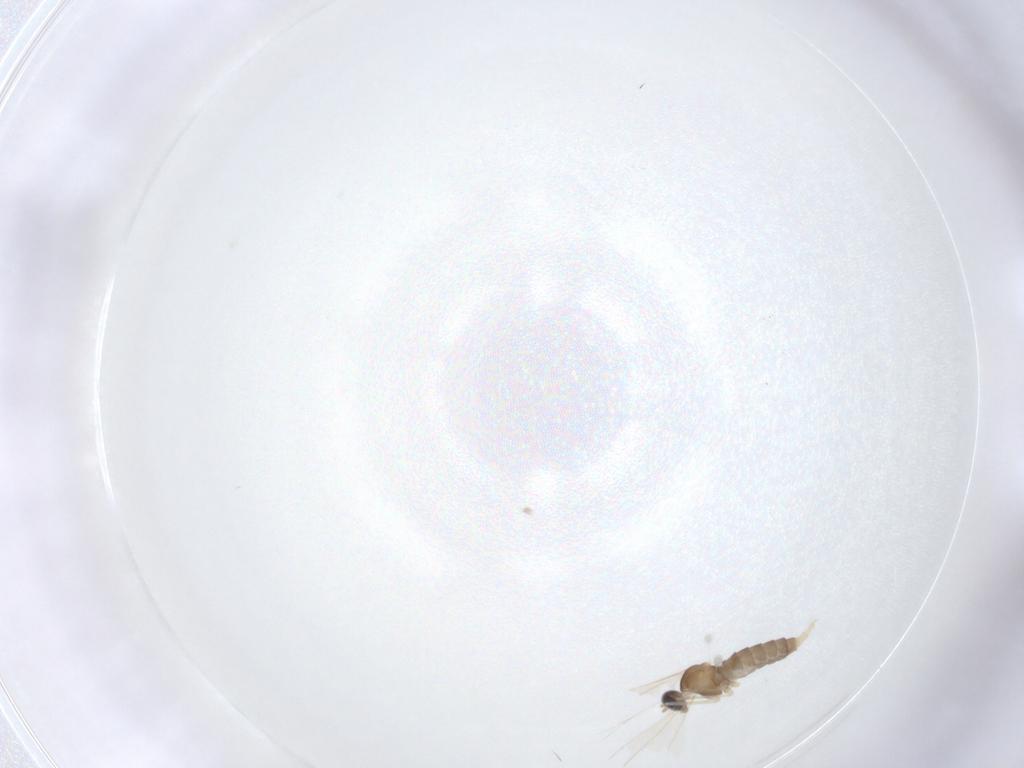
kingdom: Animalia
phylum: Arthropoda
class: Insecta
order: Diptera
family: Cecidomyiidae
